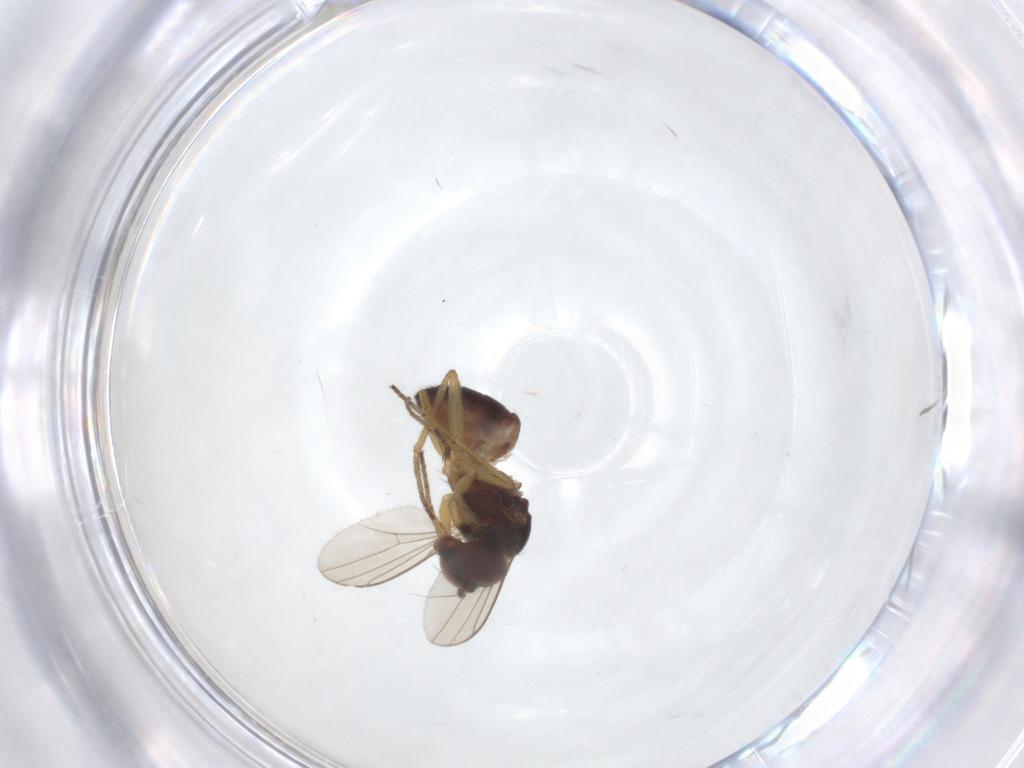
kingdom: Animalia
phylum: Arthropoda
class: Insecta
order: Diptera
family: Dolichopodidae
